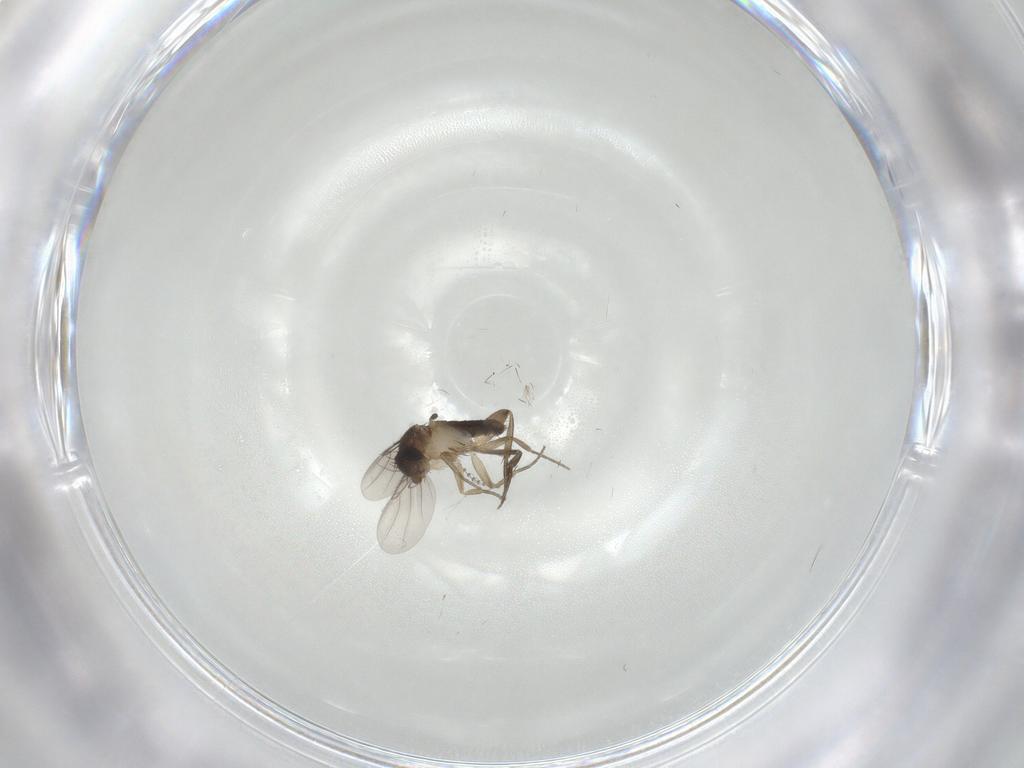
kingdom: Animalia
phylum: Arthropoda
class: Insecta
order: Diptera
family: Phoridae
